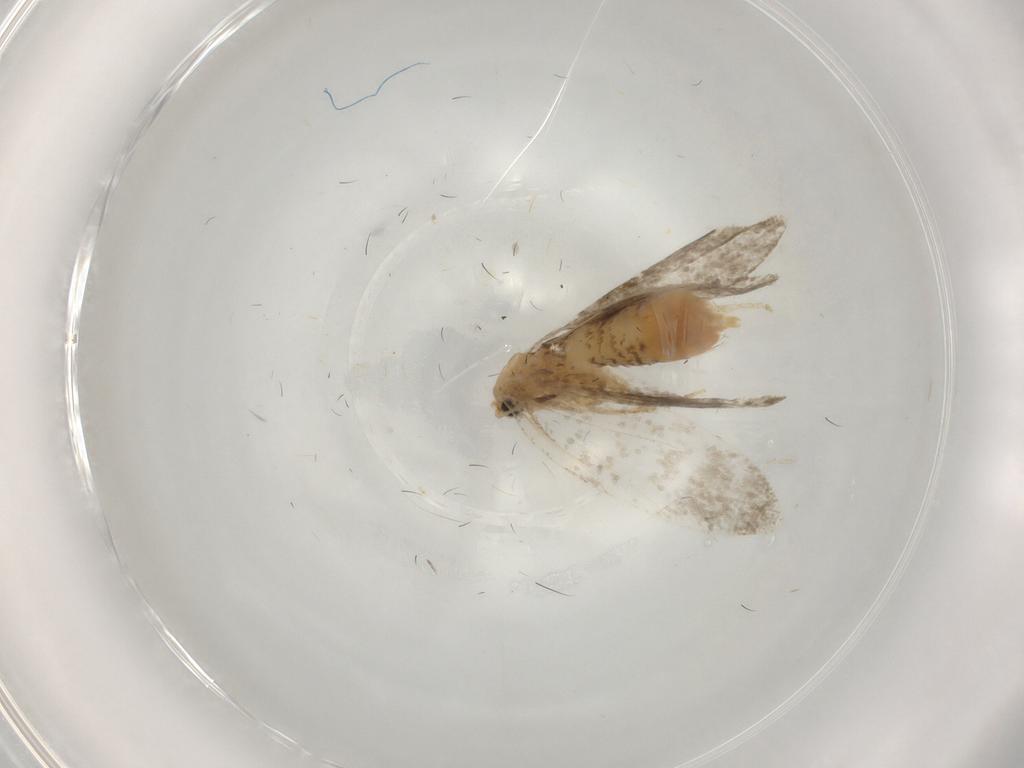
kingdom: Animalia
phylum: Arthropoda
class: Insecta
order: Lepidoptera
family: Psychidae
